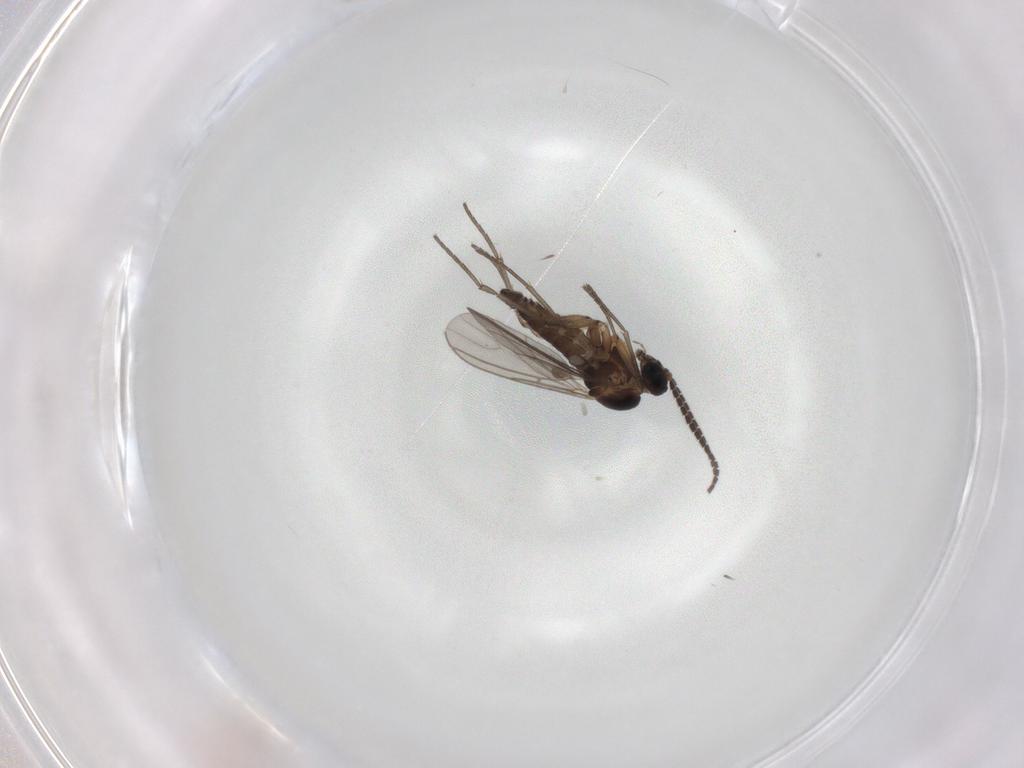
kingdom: Animalia
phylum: Arthropoda
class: Insecta
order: Diptera
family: Sciaridae
